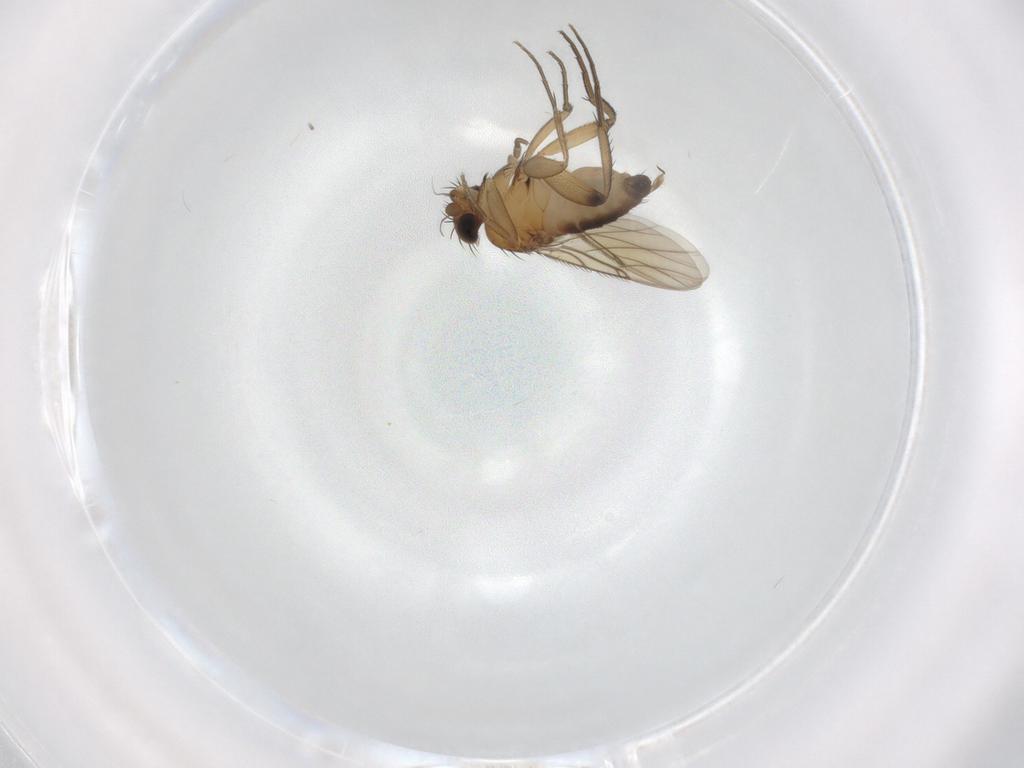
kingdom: Animalia
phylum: Arthropoda
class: Insecta
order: Diptera
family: Phoridae
